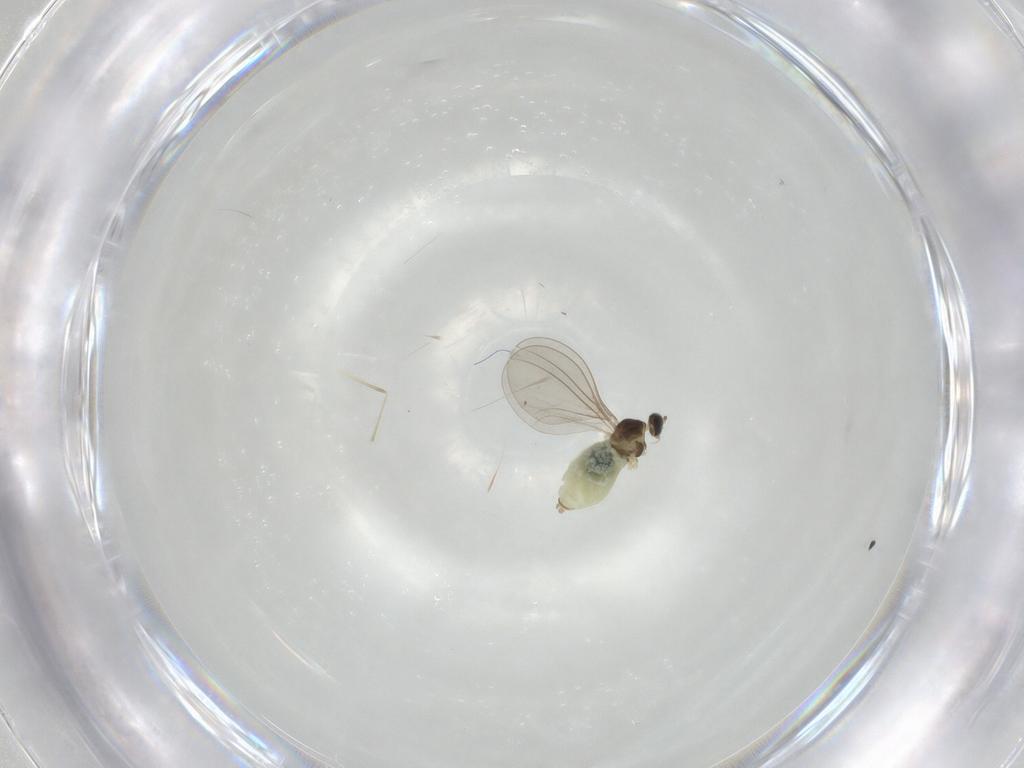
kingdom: Animalia
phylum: Arthropoda
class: Insecta
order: Diptera
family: Cecidomyiidae
